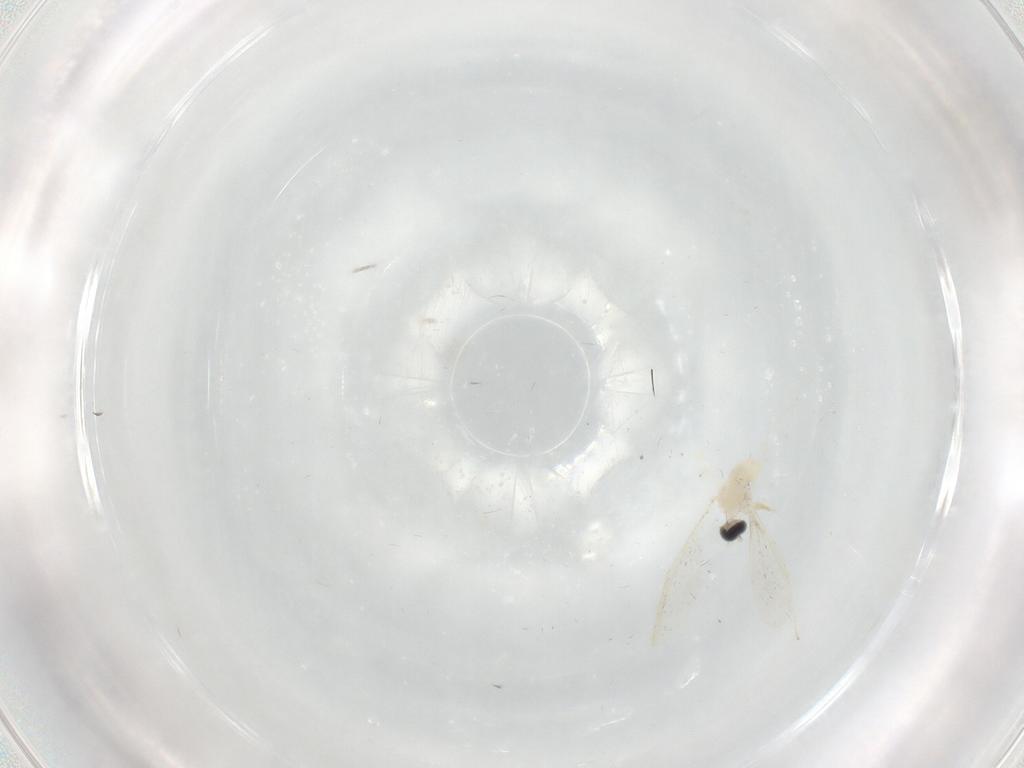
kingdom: Animalia
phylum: Arthropoda
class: Insecta
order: Diptera
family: Cecidomyiidae
